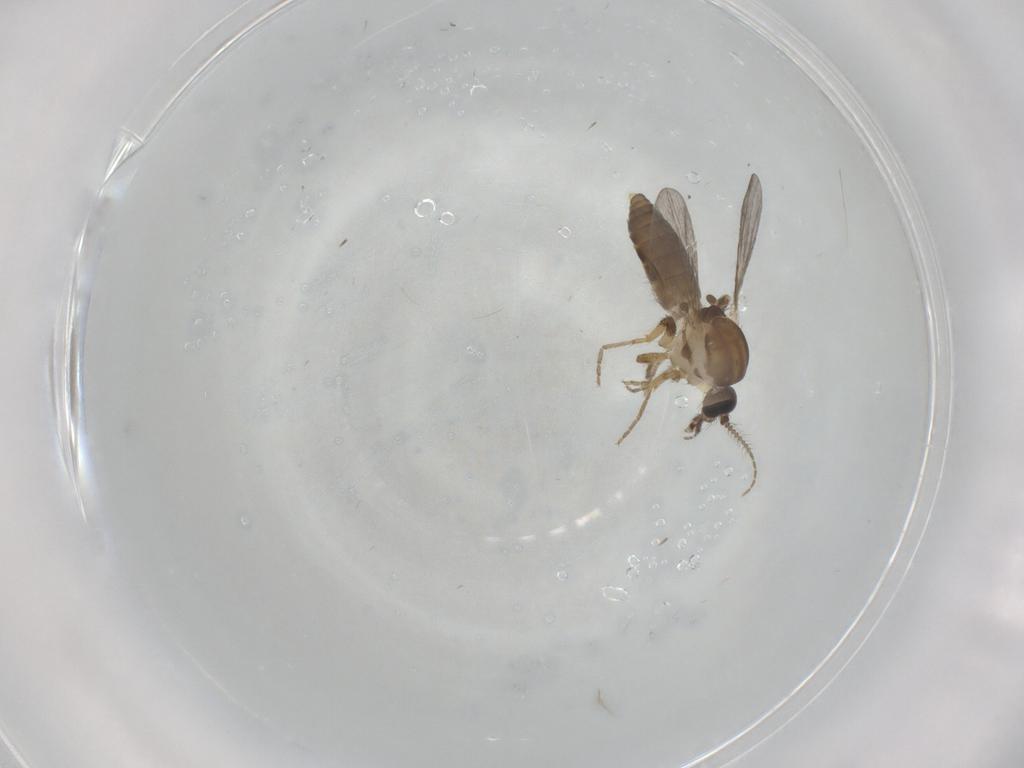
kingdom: Animalia
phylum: Arthropoda
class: Insecta
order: Diptera
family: Ceratopogonidae
